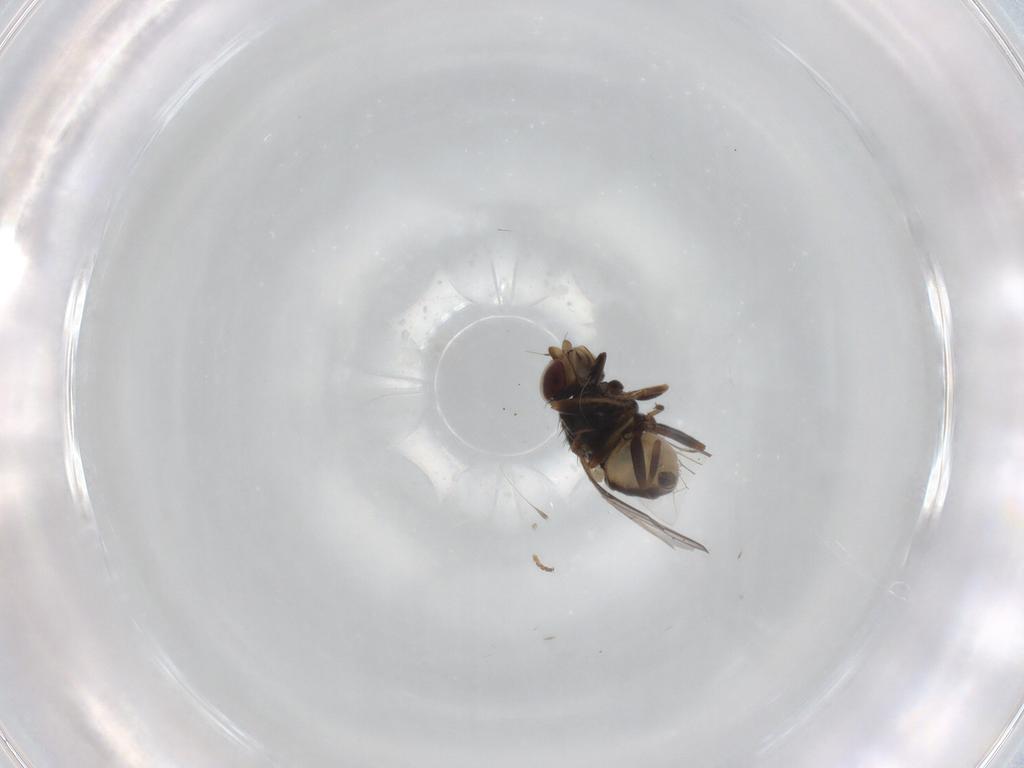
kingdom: Animalia
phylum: Arthropoda
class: Insecta
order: Diptera
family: Chloropidae
